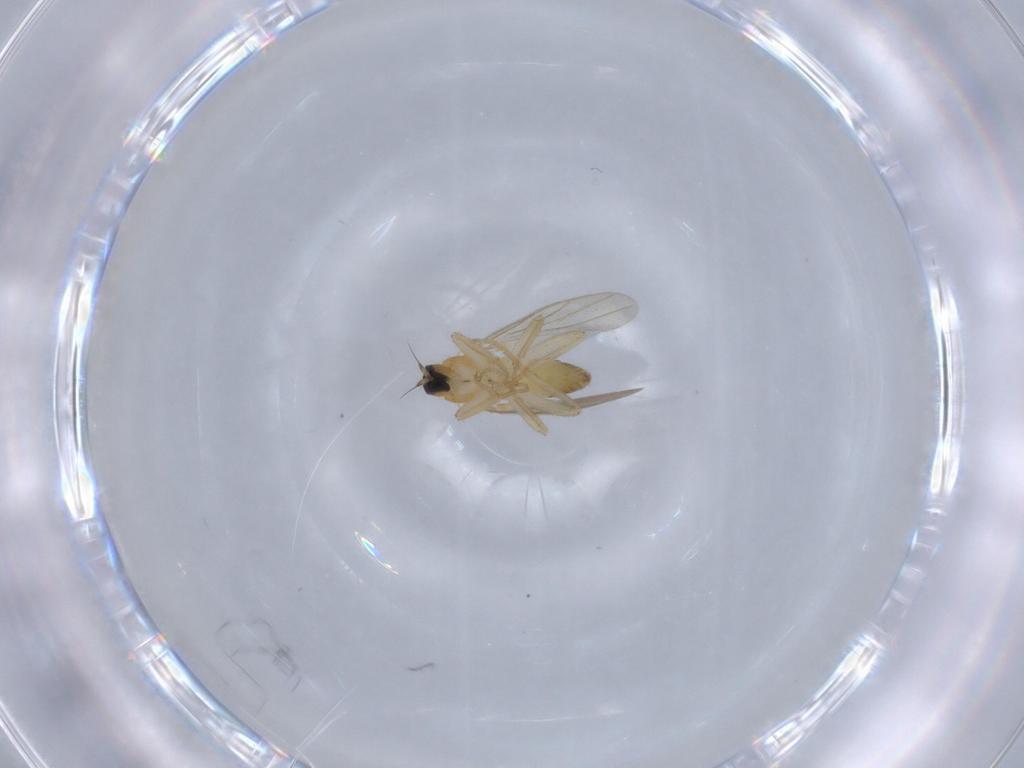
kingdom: Animalia
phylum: Arthropoda
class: Insecta
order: Diptera
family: Hybotidae
